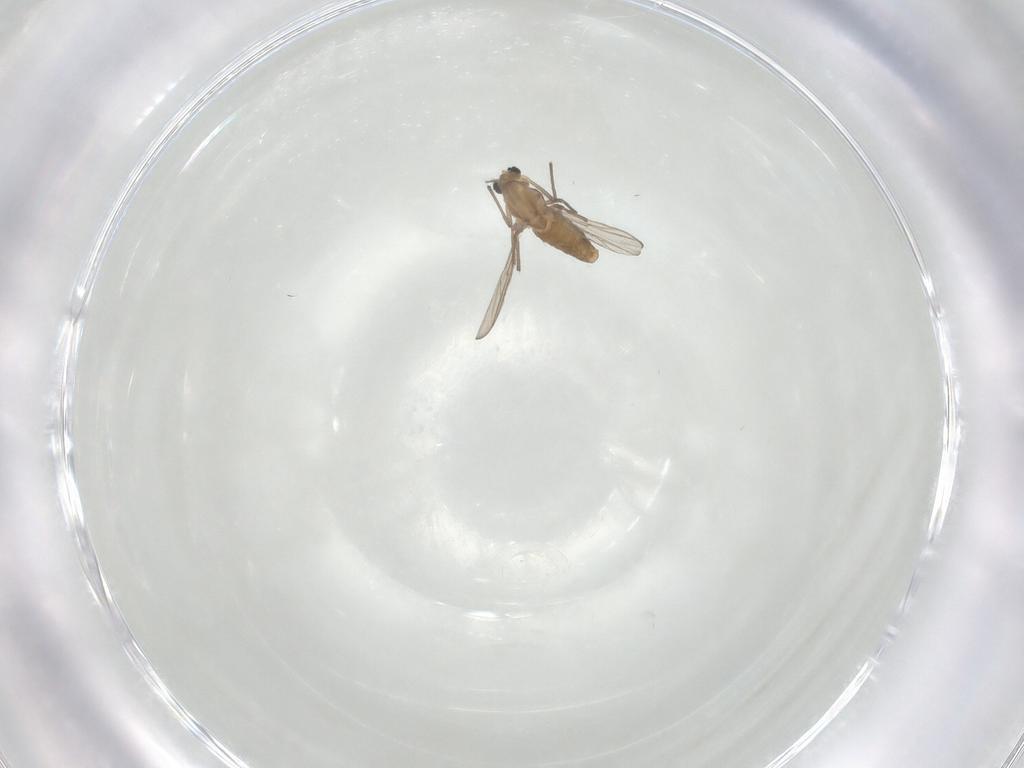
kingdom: Animalia
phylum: Arthropoda
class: Insecta
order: Diptera
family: Chironomidae
